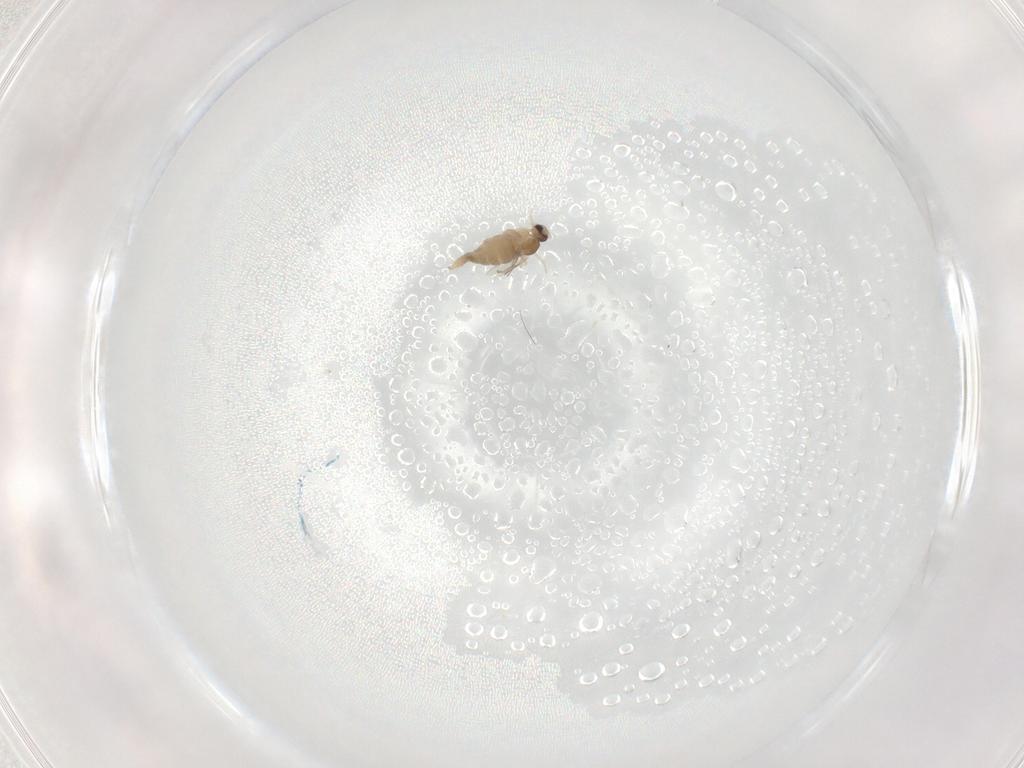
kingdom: Animalia
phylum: Arthropoda
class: Insecta
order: Diptera
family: Cecidomyiidae
